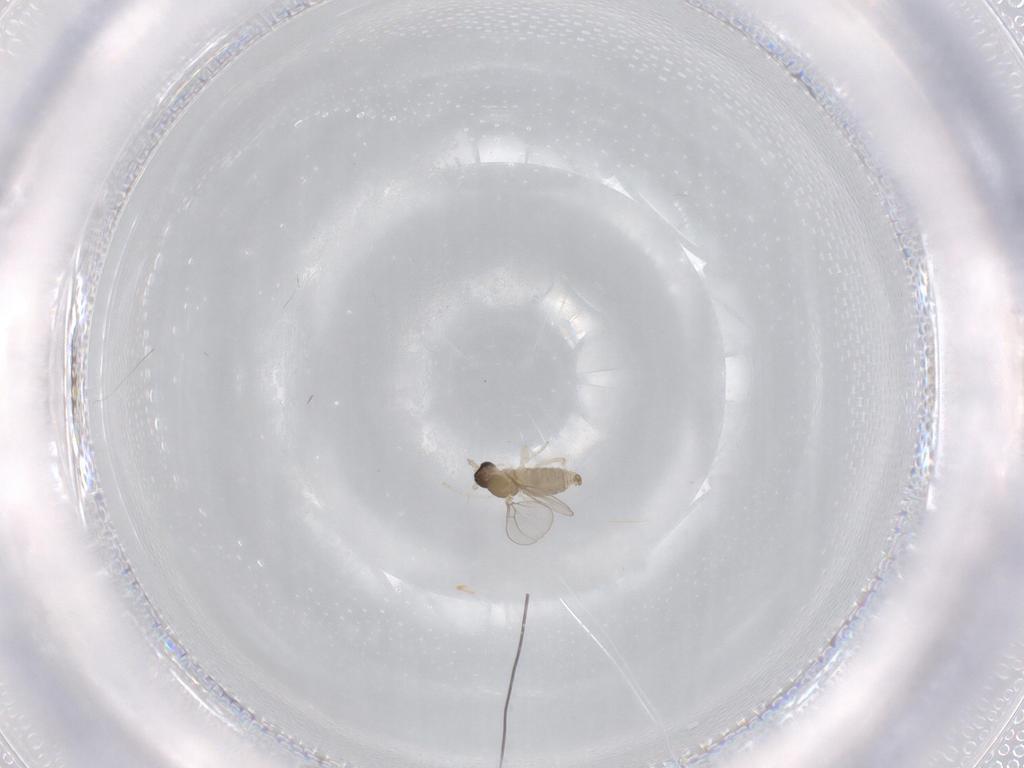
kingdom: Animalia
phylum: Arthropoda
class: Insecta
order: Diptera
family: Cecidomyiidae
